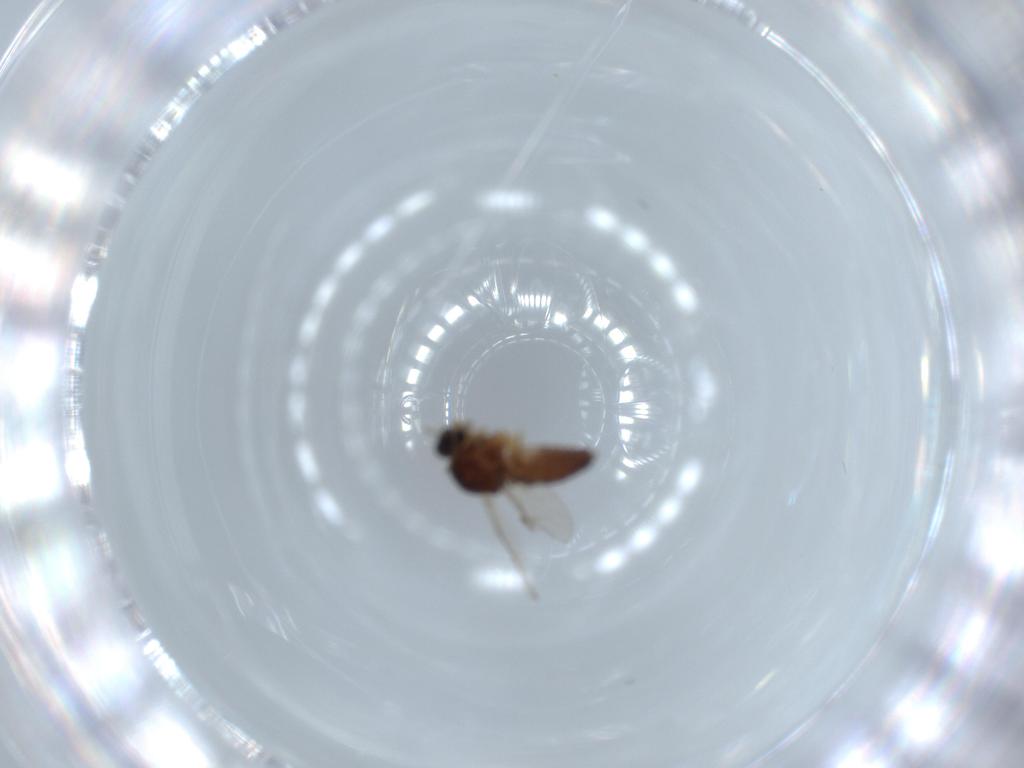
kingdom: Animalia
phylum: Arthropoda
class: Insecta
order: Diptera
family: Ceratopogonidae
